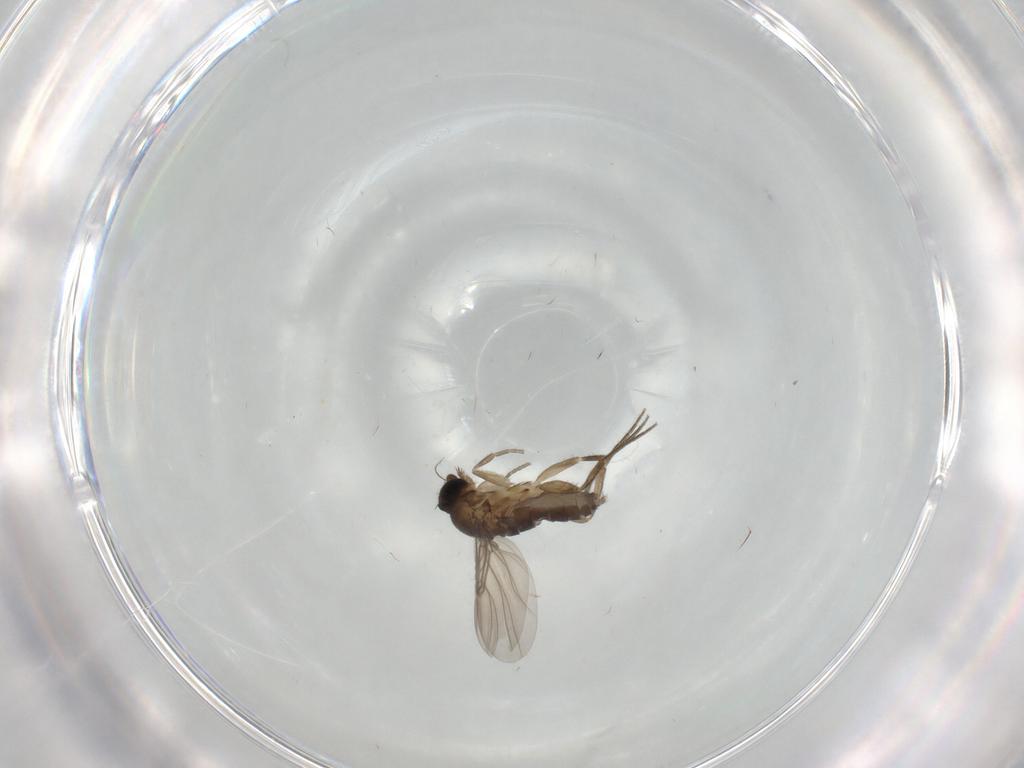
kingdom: Animalia
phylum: Arthropoda
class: Insecta
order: Diptera
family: Phoridae
